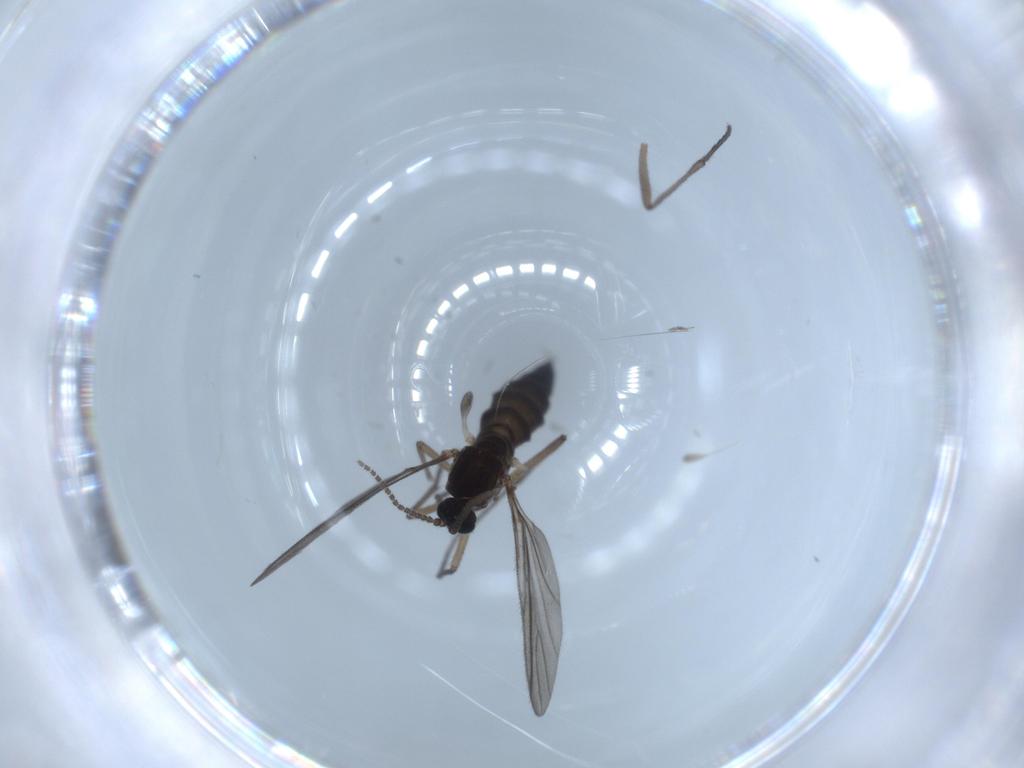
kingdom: Animalia
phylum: Arthropoda
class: Insecta
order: Diptera
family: Sciaridae
